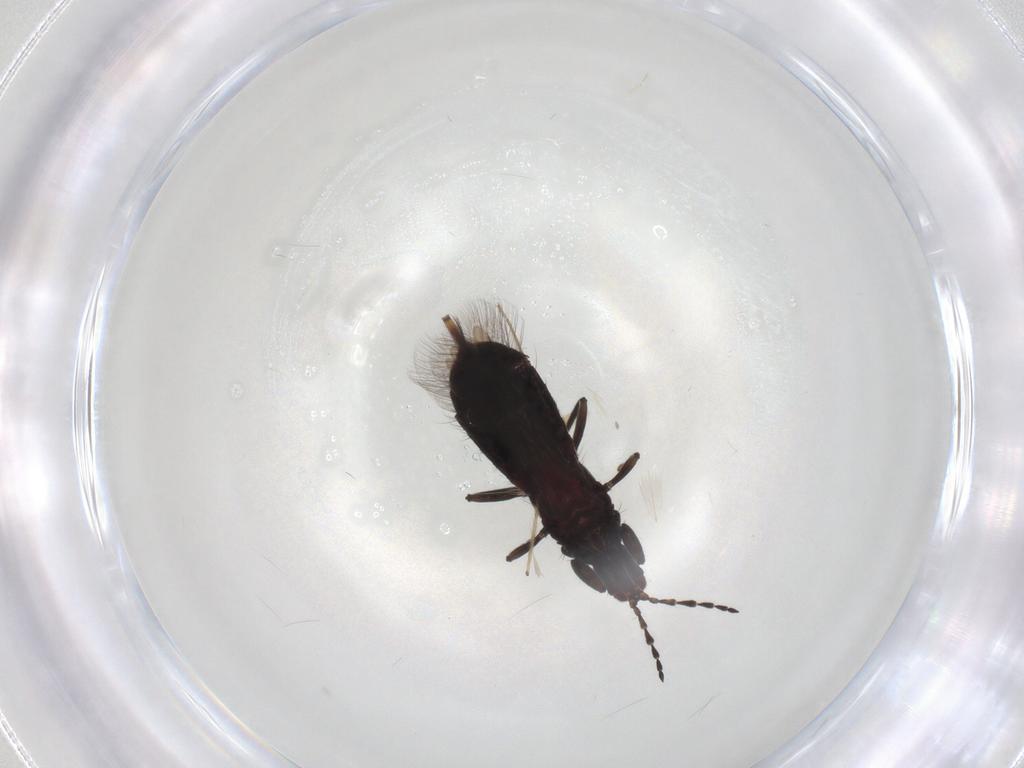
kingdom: Animalia
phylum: Arthropoda
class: Insecta
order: Thysanoptera
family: Phlaeothripidae
